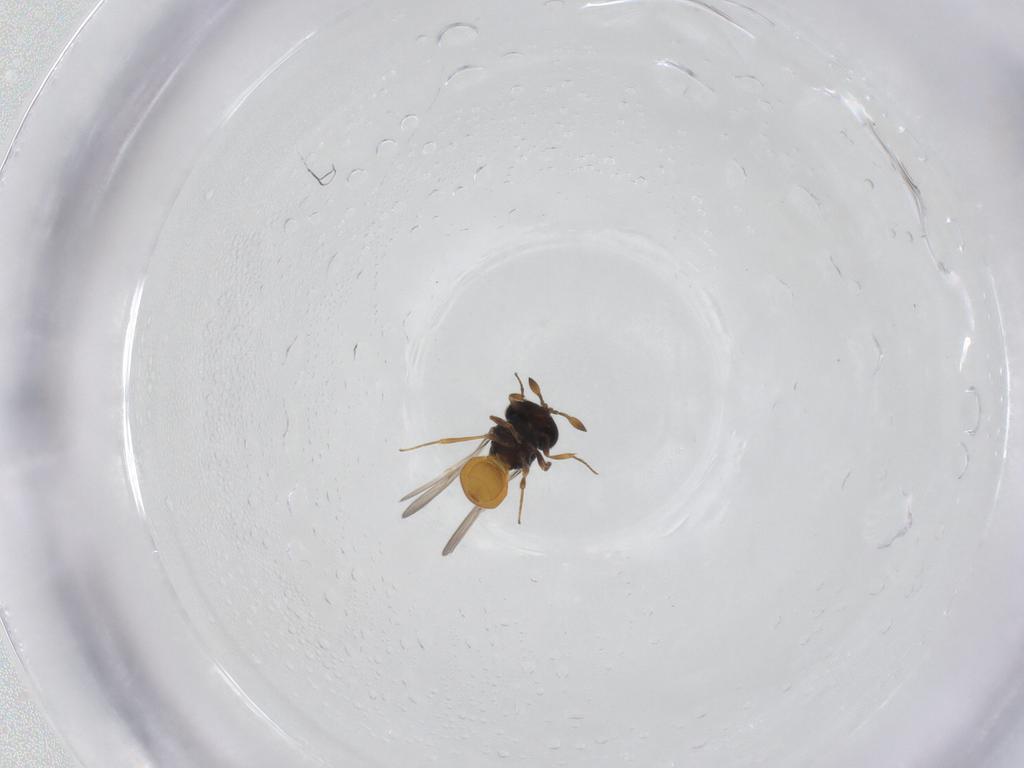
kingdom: Animalia
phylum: Arthropoda
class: Insecta
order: Hymenoptera
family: Scelionidae
